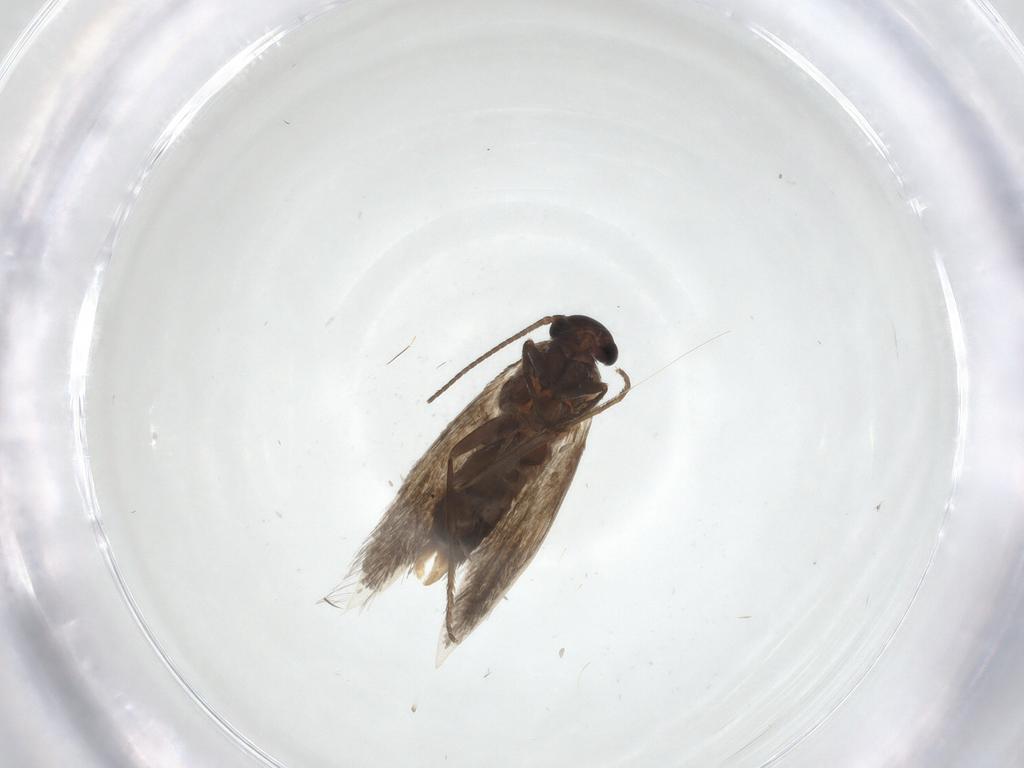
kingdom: Animalia
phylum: Arthropoda
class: Insecta
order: Lepidoptera
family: Heliozelidae
